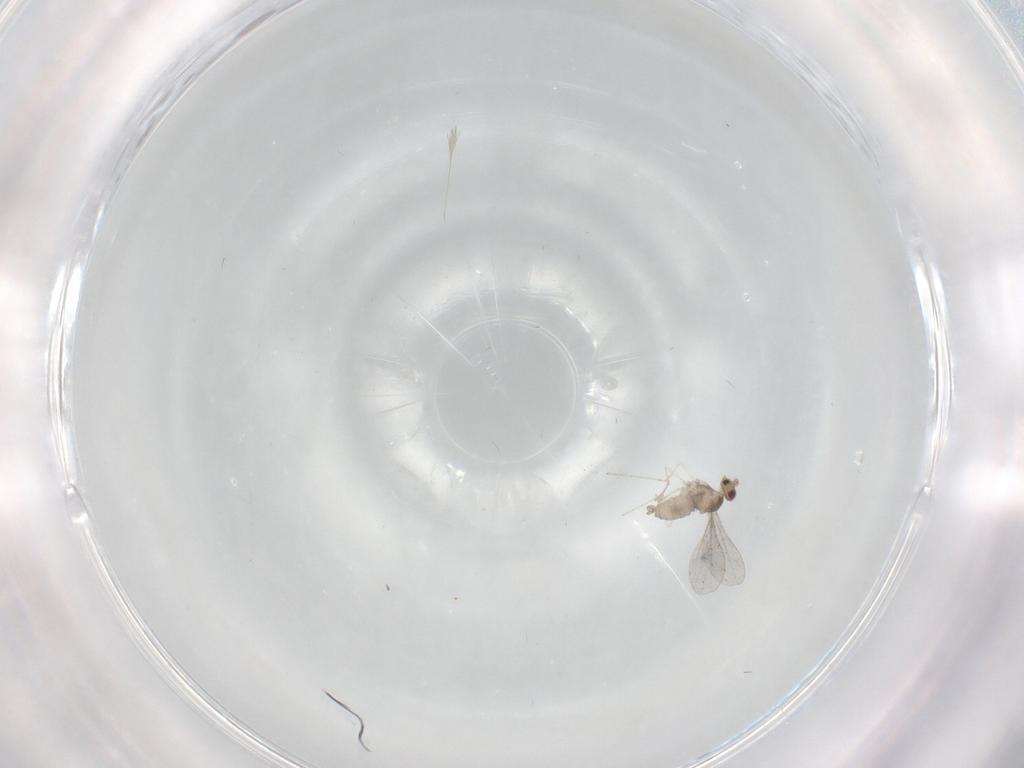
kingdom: Animalia
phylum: Arthropoda
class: Insecta
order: Diptera
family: Cecidomyiidae
